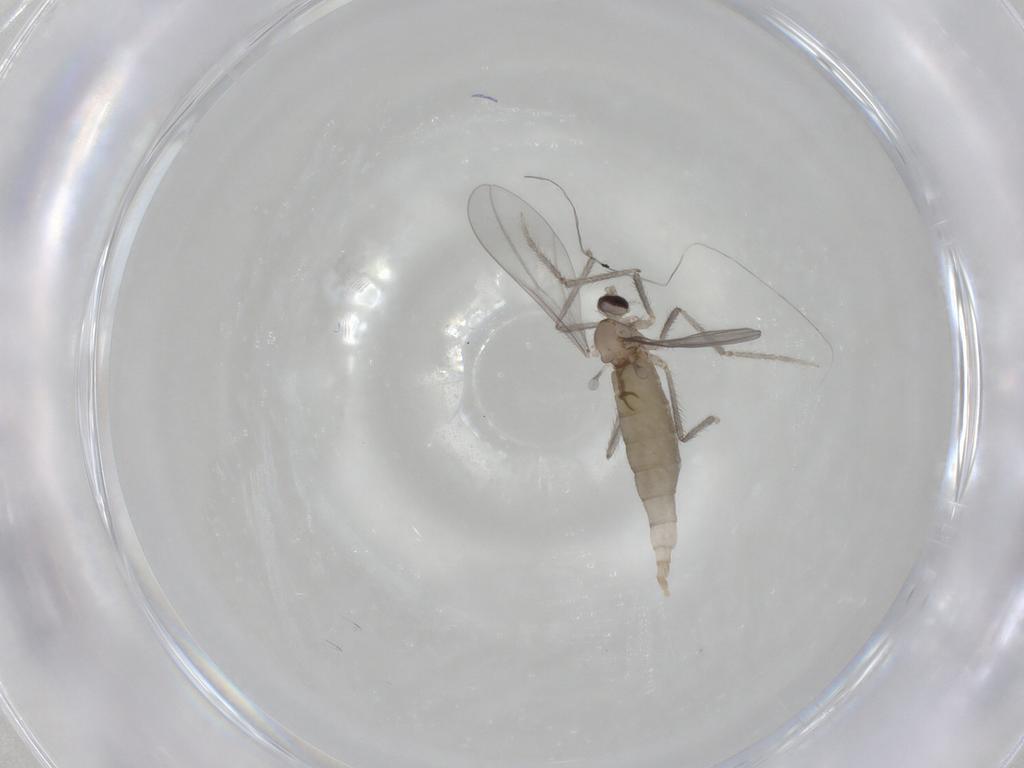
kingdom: Animalia
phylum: Arthropoda
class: Insecta
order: Diptera
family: Cecidomyiidae
